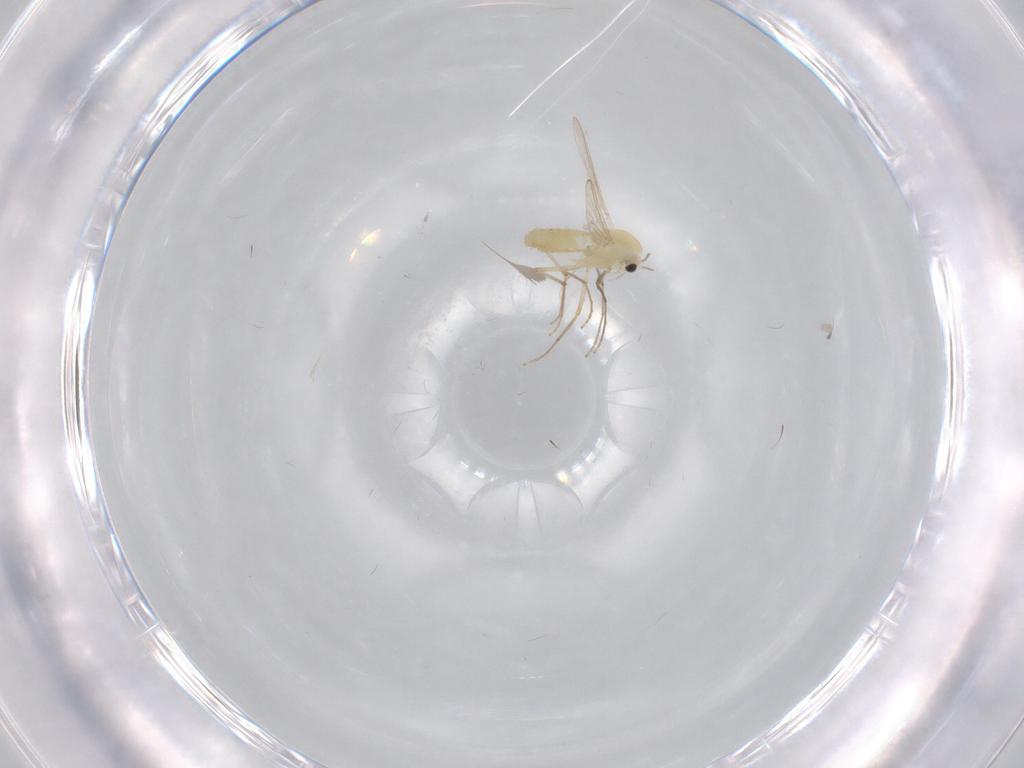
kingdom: Animalia
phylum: Arthropoda
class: Insecta
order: Diptera
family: Chironomidae
